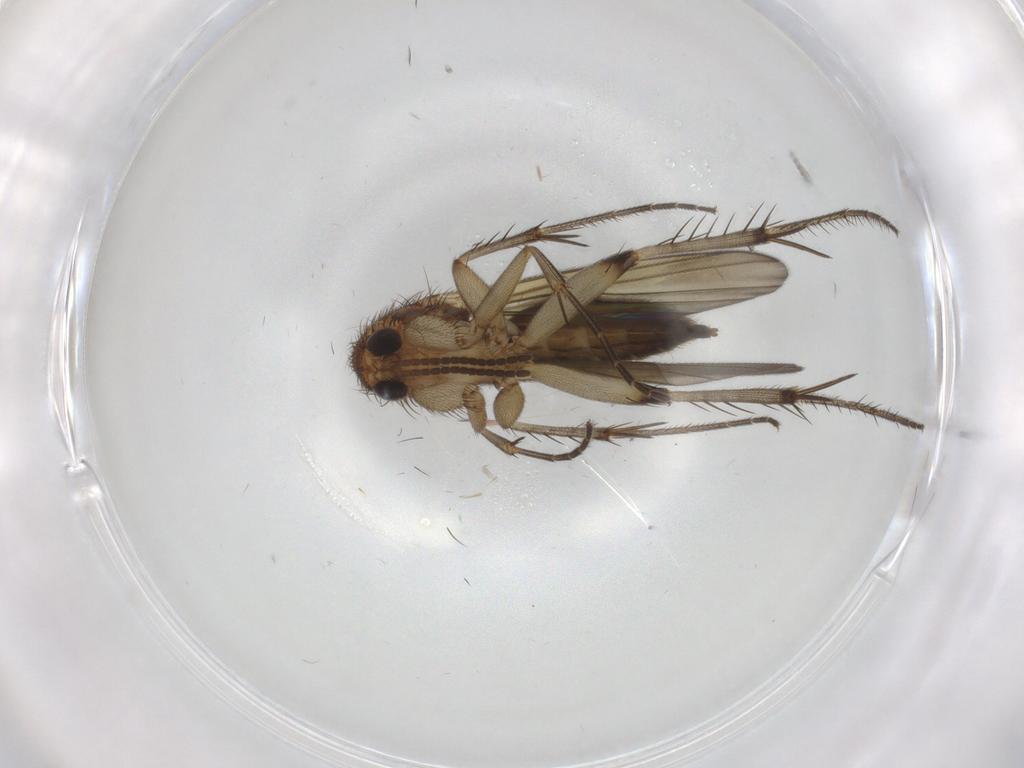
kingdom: Animalia
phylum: Arthropoda
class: Insecta
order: Diptera
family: Mycetophilidae
